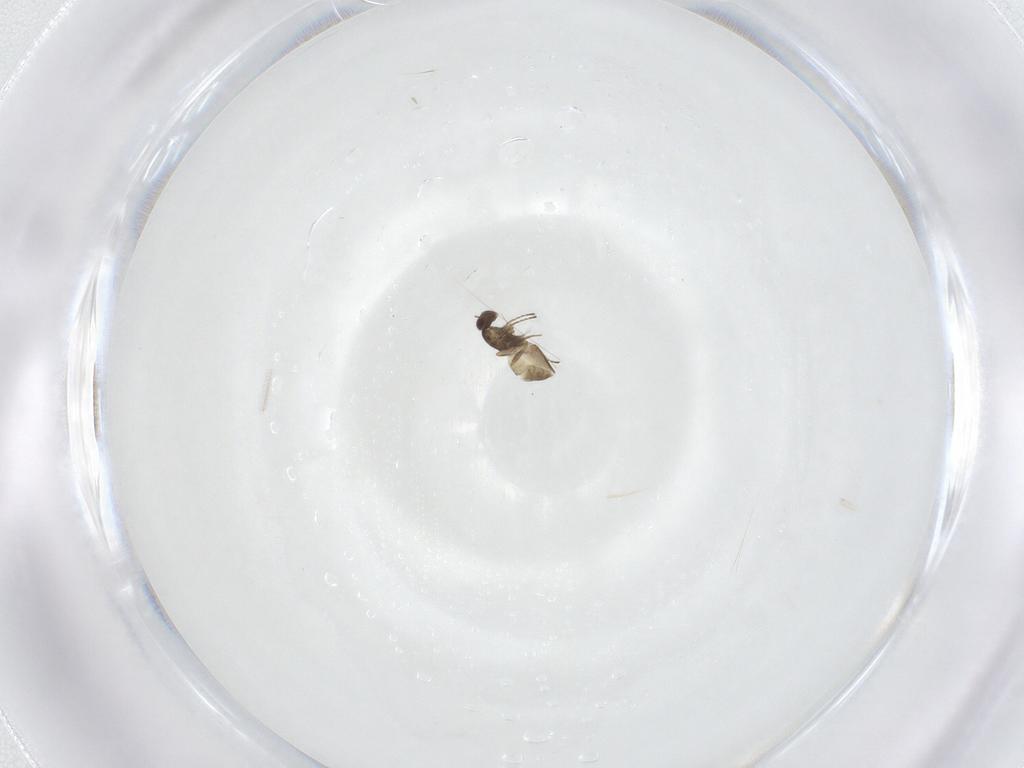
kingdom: Animalia
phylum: Arthropoda
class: Insecta
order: Hymenoptera
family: Mymaridae
